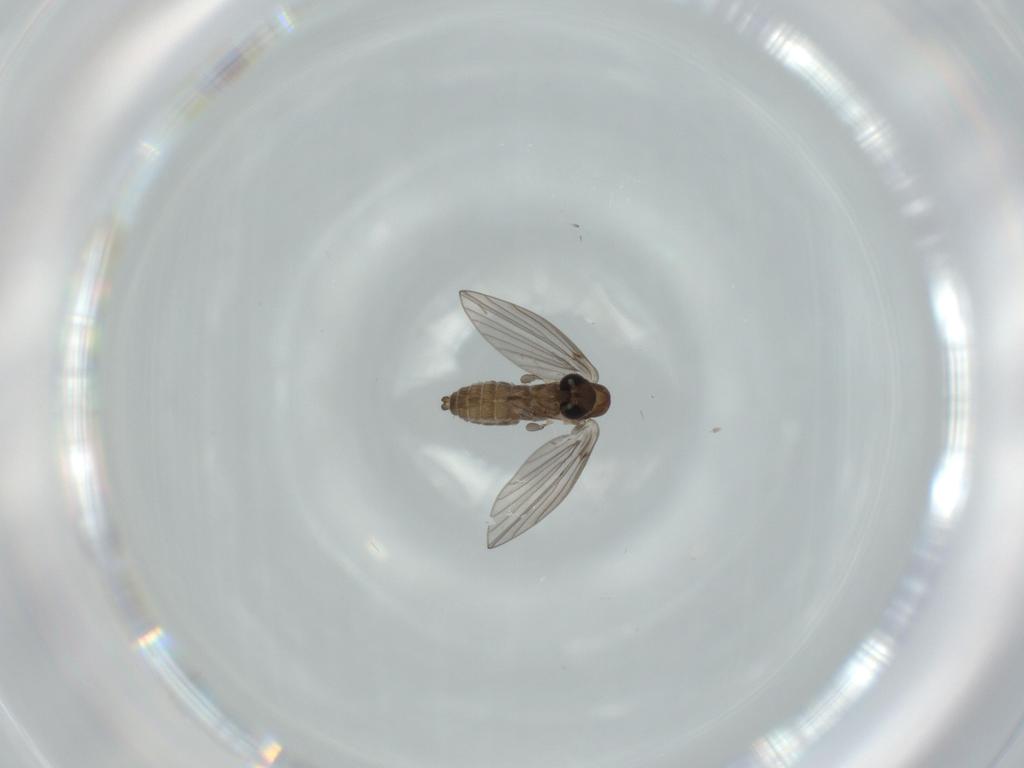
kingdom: Animalia
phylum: Arthropoda
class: Insecta
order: Diptera
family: Psychodidae
